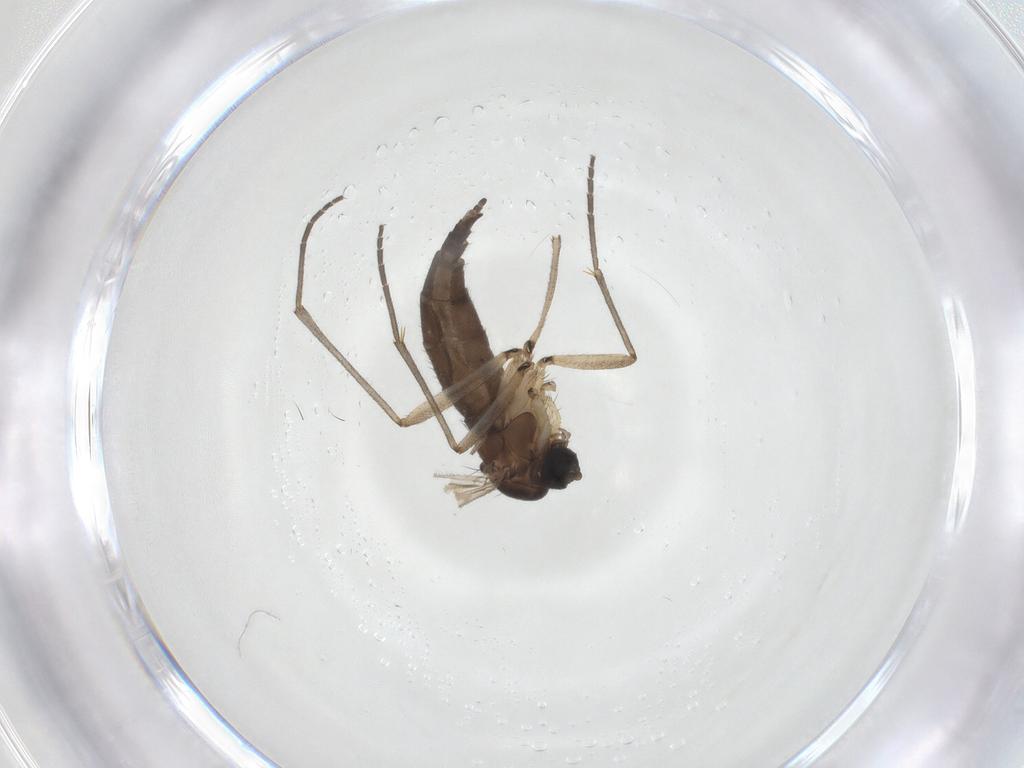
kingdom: Animalia
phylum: Arthropoda
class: Insecta
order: Diptera
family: Sciaridae
